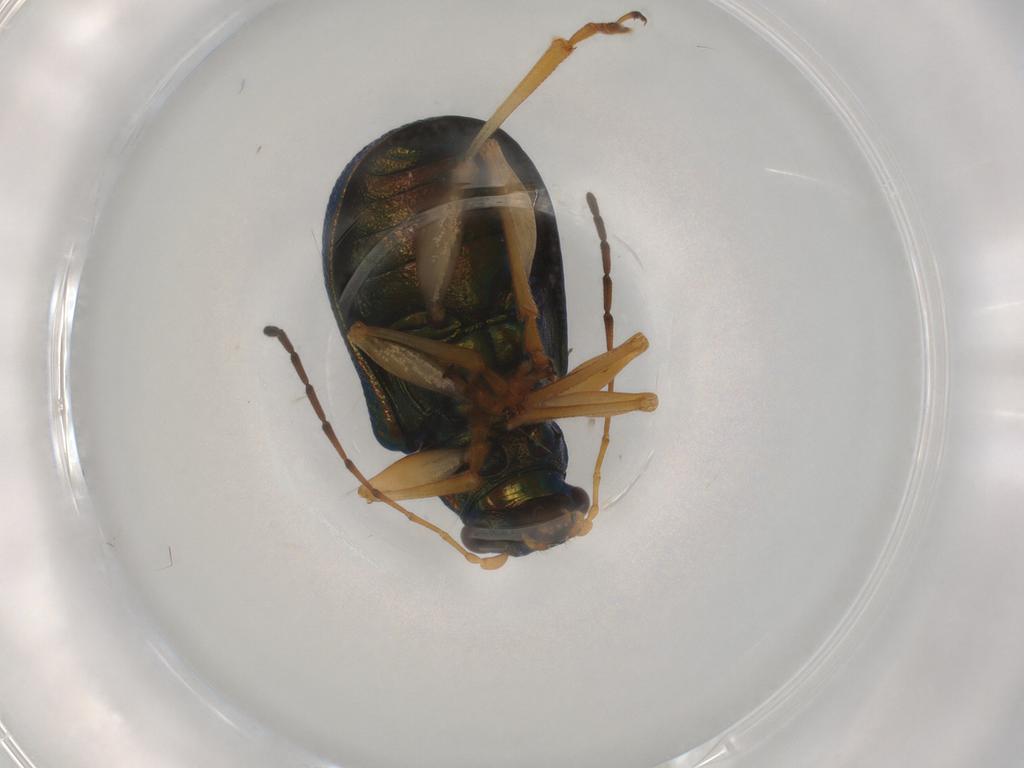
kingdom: Animalia
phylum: Arthropoda
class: Insecta
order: Coleoptera
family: Chrysomelidae
